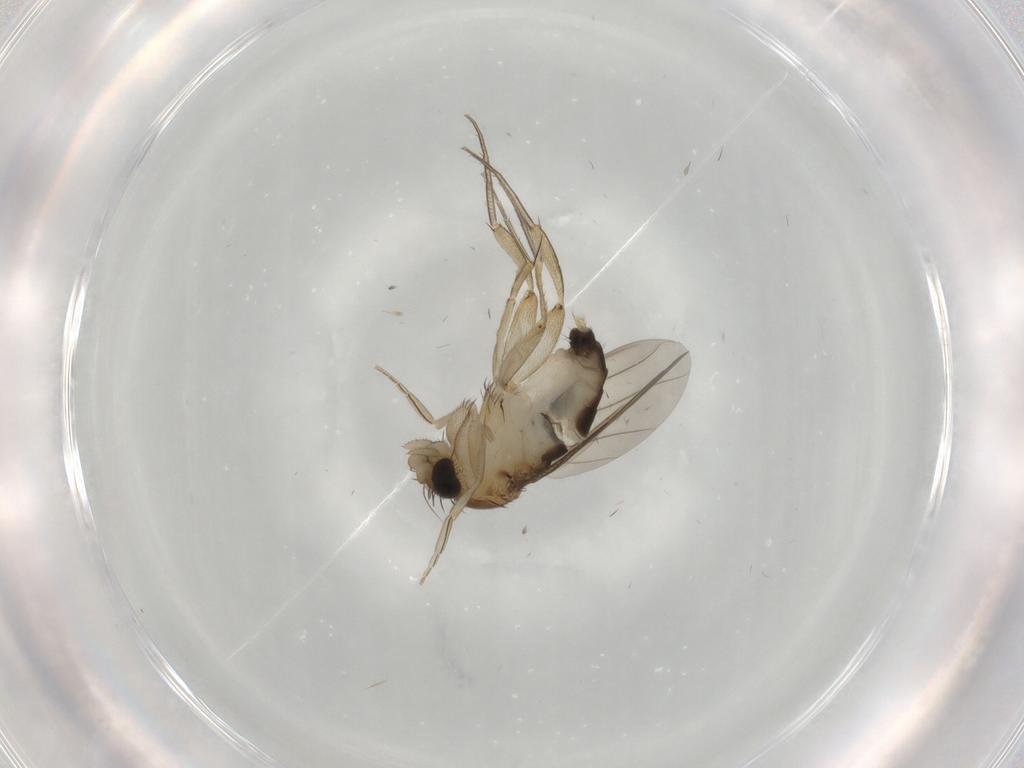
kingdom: Animalia
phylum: Arthropoda
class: Insecta
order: Diptera
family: Phoridae
